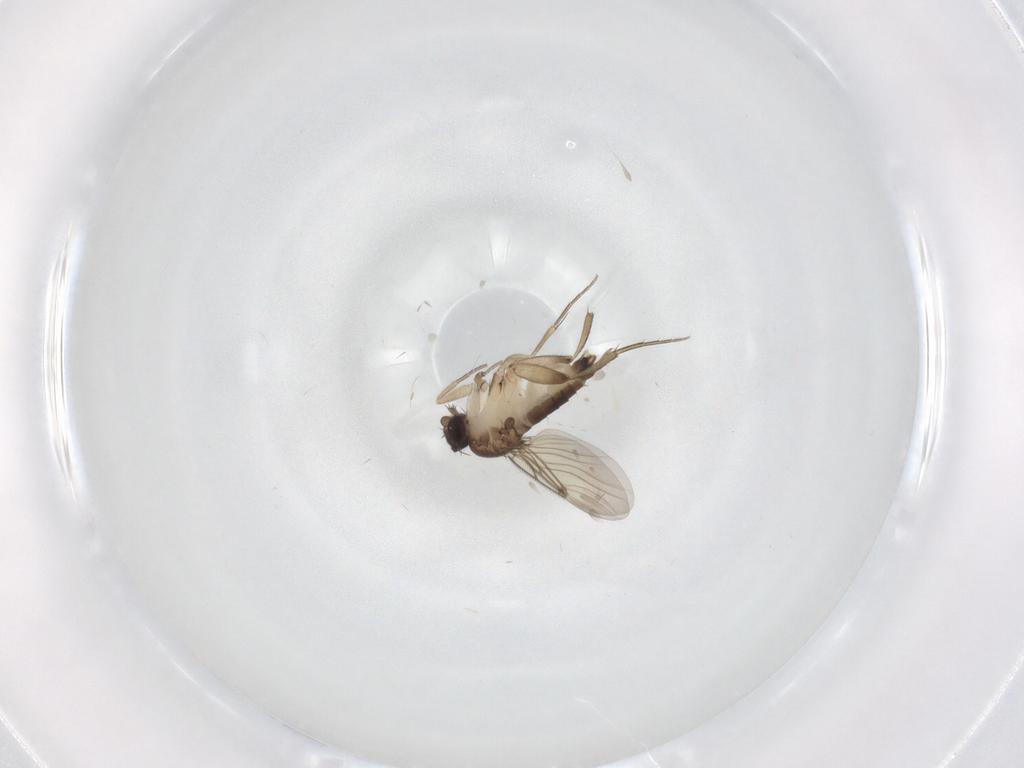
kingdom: Animalia
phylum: Arthropoda
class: Insecta
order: Diptera
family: Phoridae
